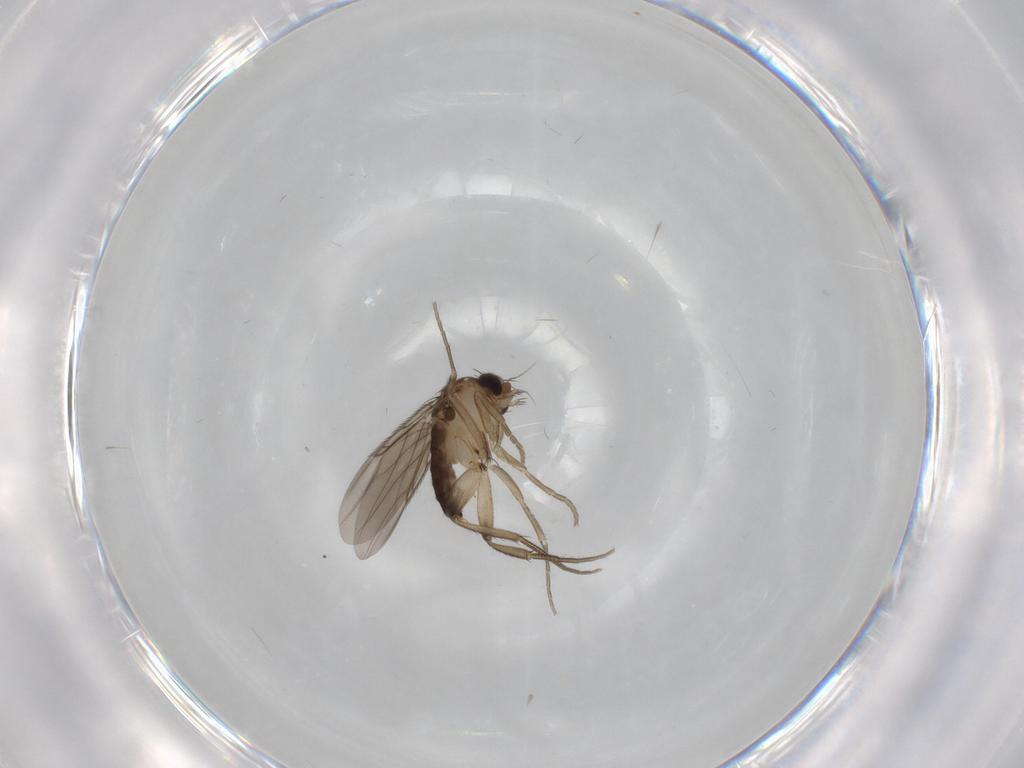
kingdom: Animalia
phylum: Arthropoda
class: Insecta
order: Diptera
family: Phoridae
